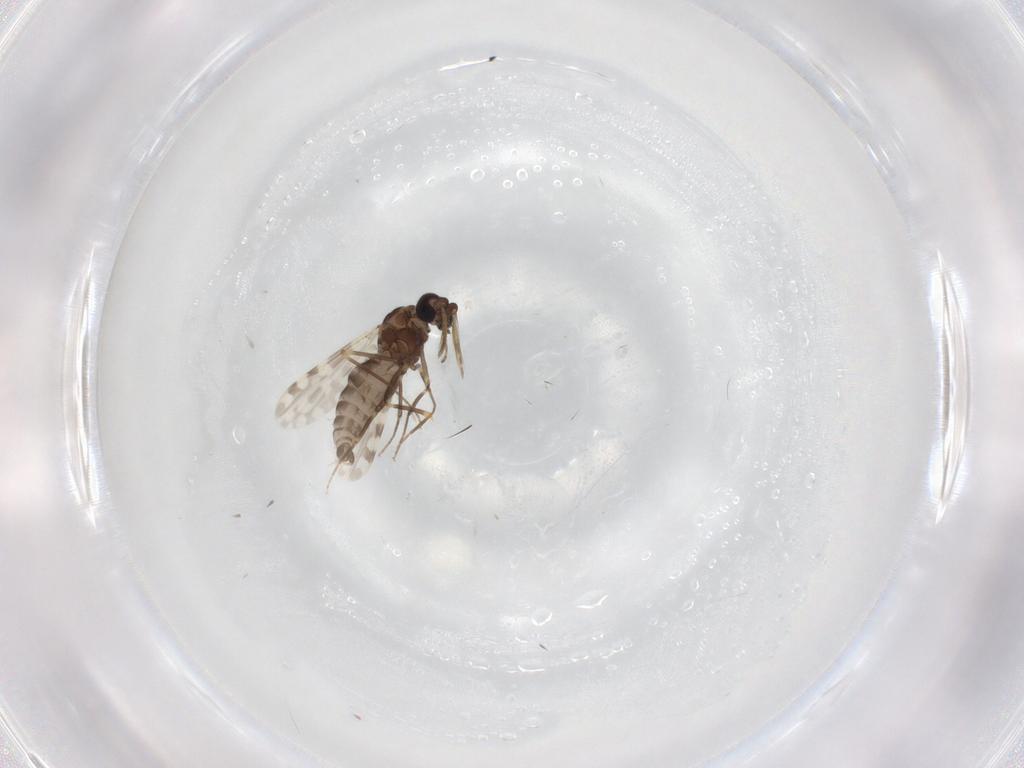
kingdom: Animalia
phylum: Arthropoda
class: Insecta
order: Diptera
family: Ceratopogonidae
